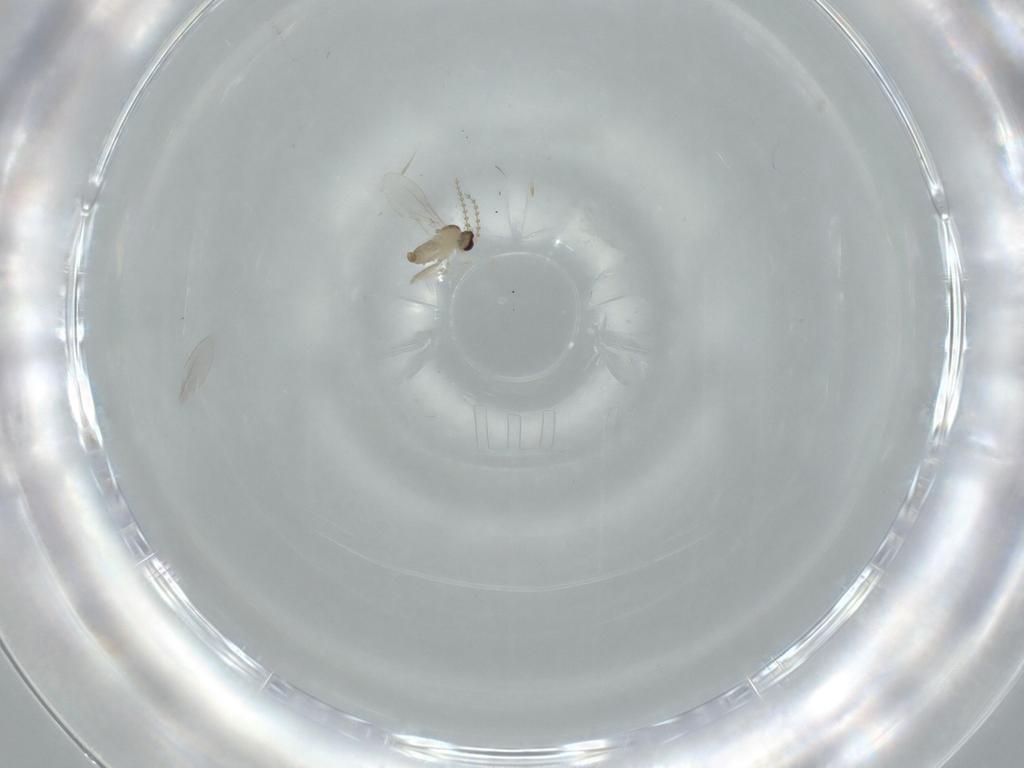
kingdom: Animalia
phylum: Arthropoda
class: Insecta
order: Diptera
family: Cecidomyiidae
